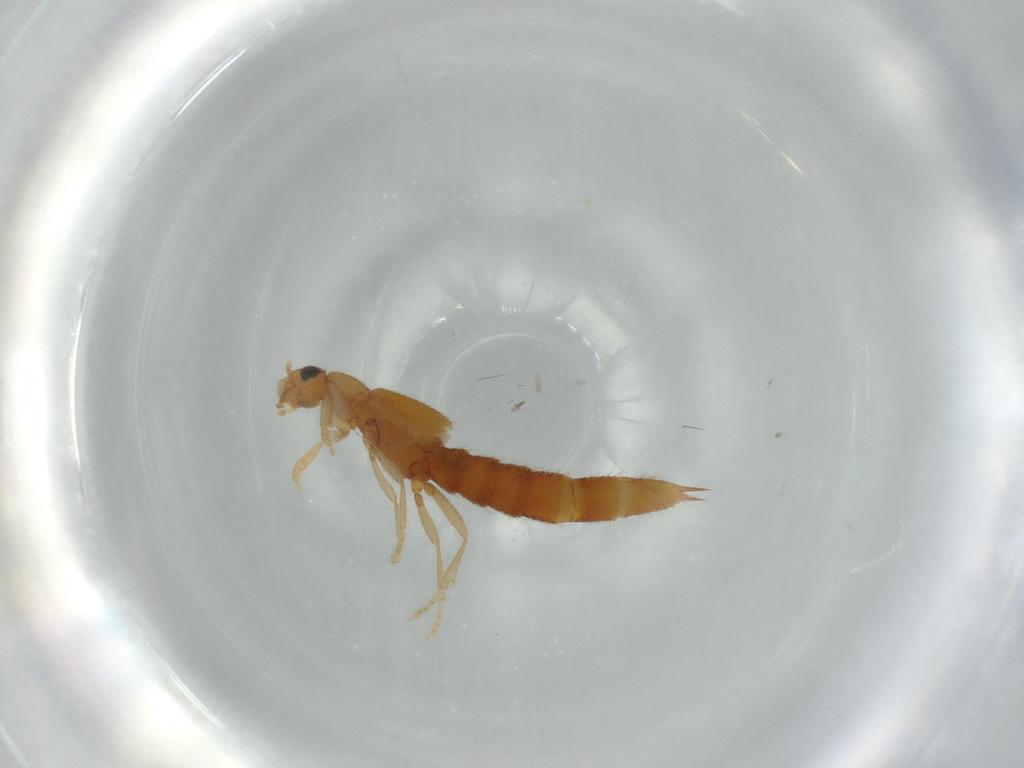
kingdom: Animalia
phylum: Arthropoda
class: Insecta
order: Coleoptera
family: Staphylinidae
